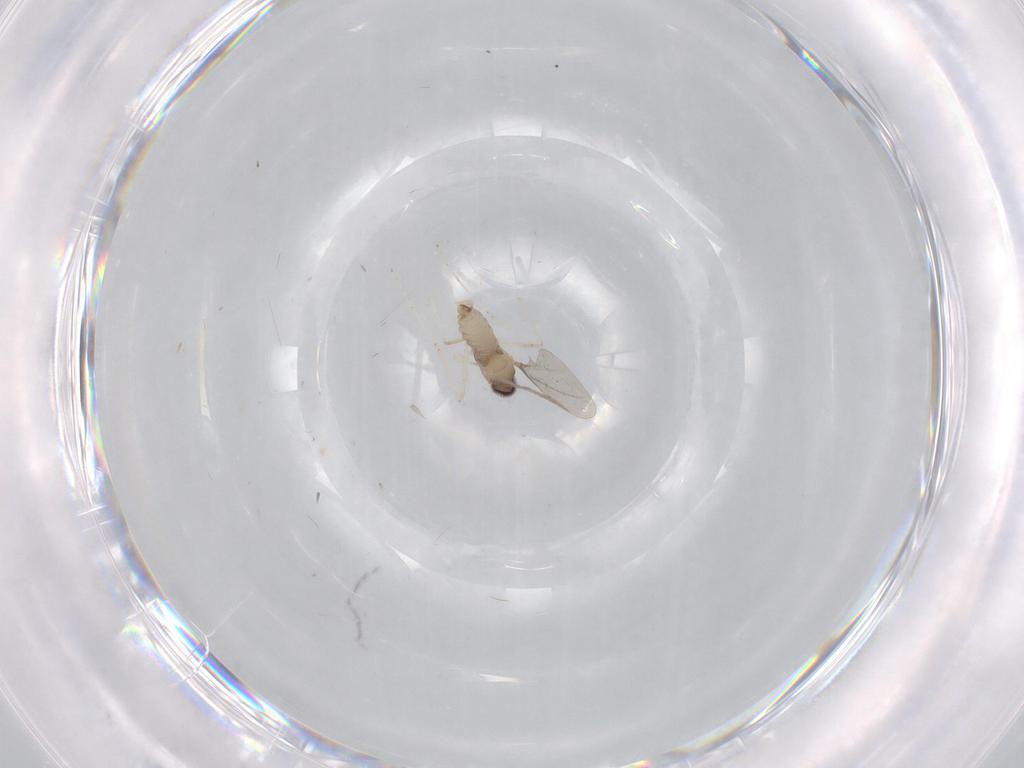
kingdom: Animalia
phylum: Arthropoda
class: Insecta
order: Diptera
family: Cecidomyiidae
